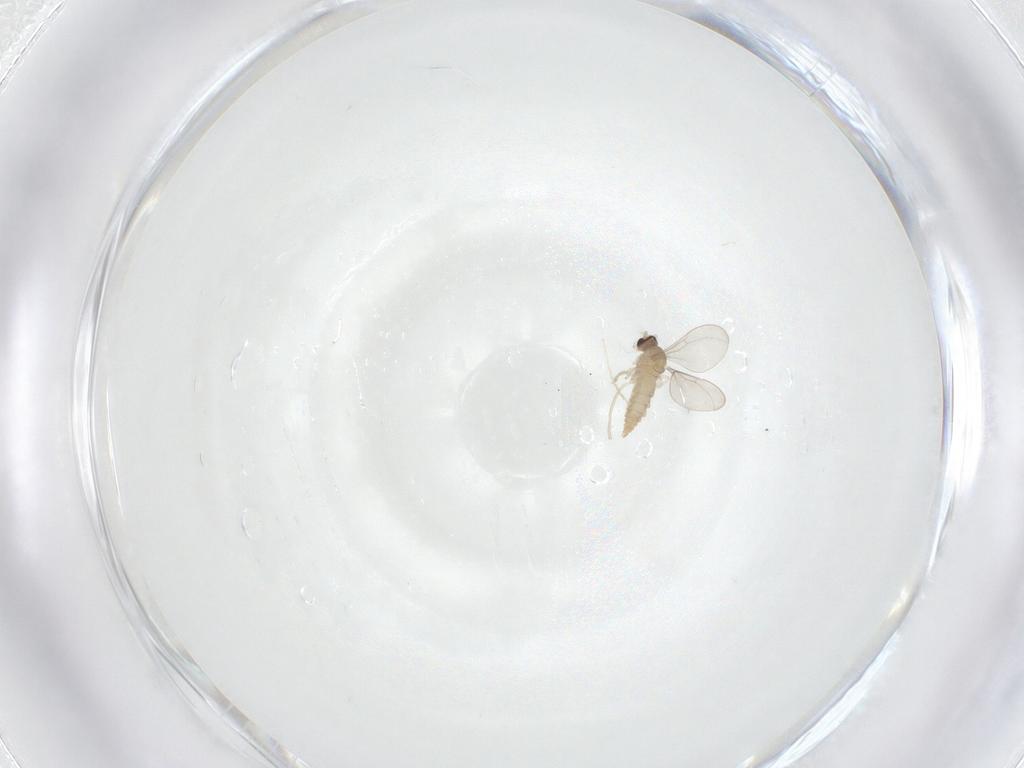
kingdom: Animalia
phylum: Arthropoda
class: Insecta
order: Diptera
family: Cecidomyiidae
